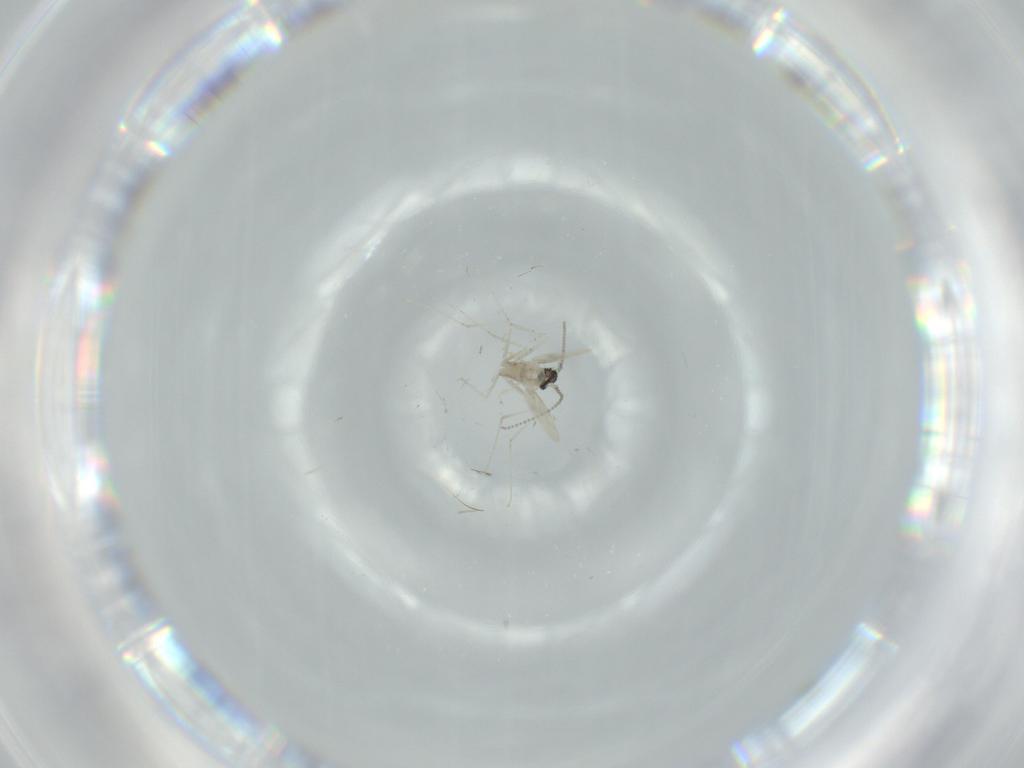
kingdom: Animalia
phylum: Arthropoda
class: Insecta
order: Diptera
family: Cecidomyiidae
